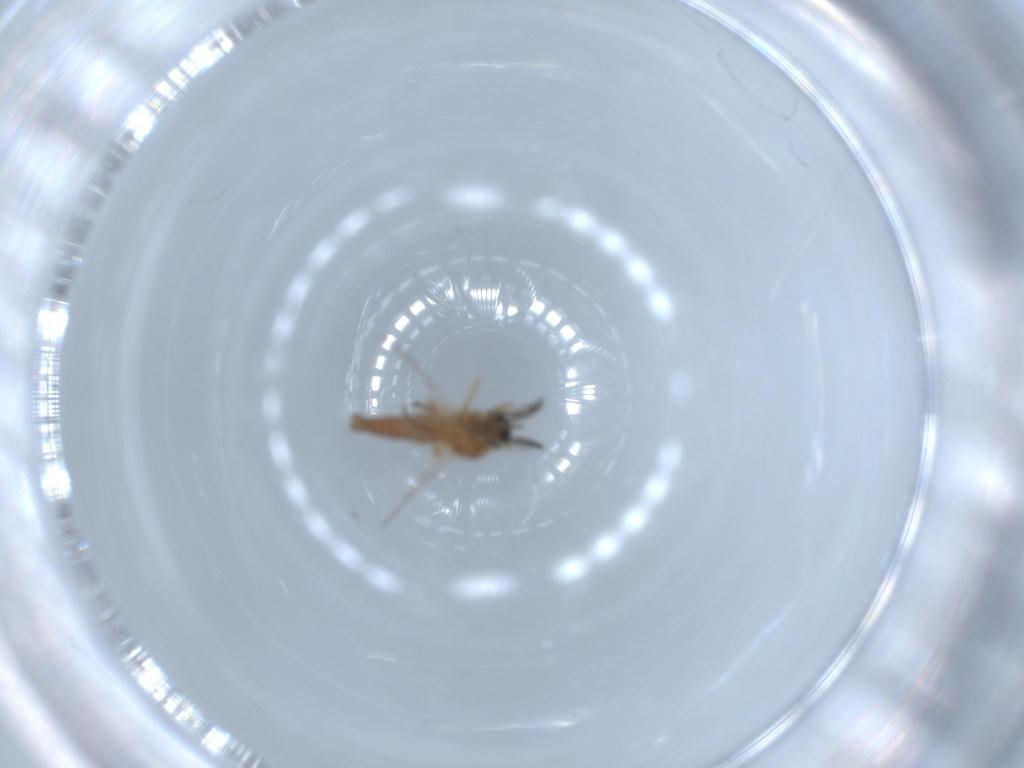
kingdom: Animalia
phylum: Arthropoda
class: Insecta
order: Diptera
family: Ceratopogonidae
